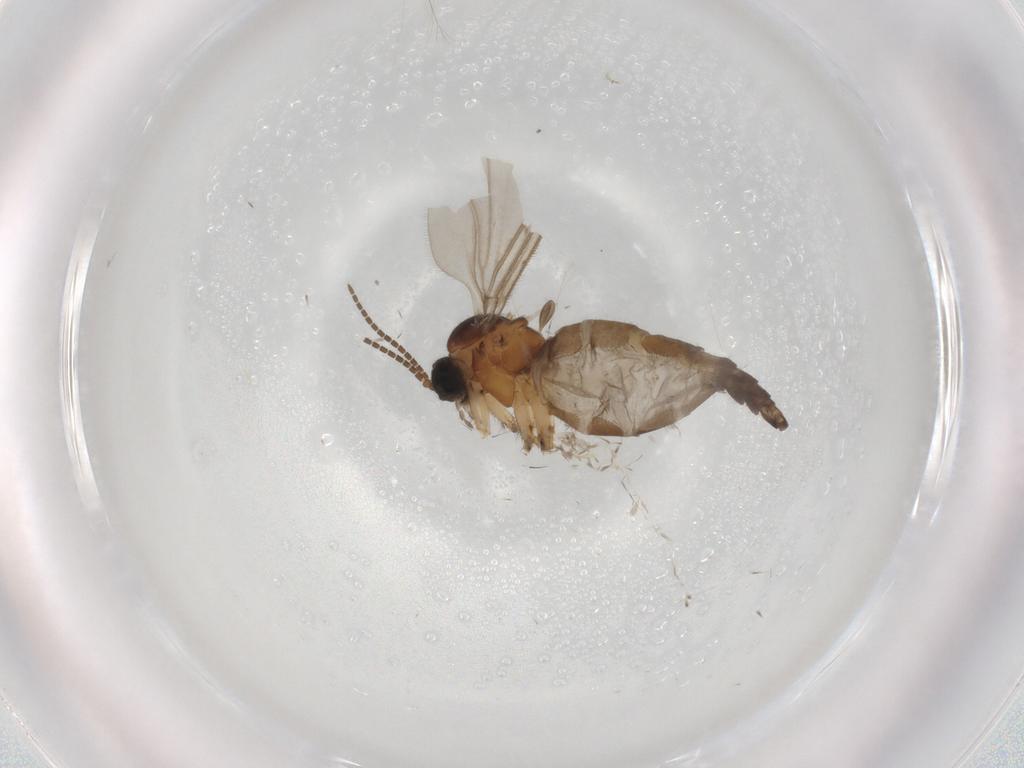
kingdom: Animalia
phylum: Arthropoda
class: Insecta
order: Diptera
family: Sciaridae
